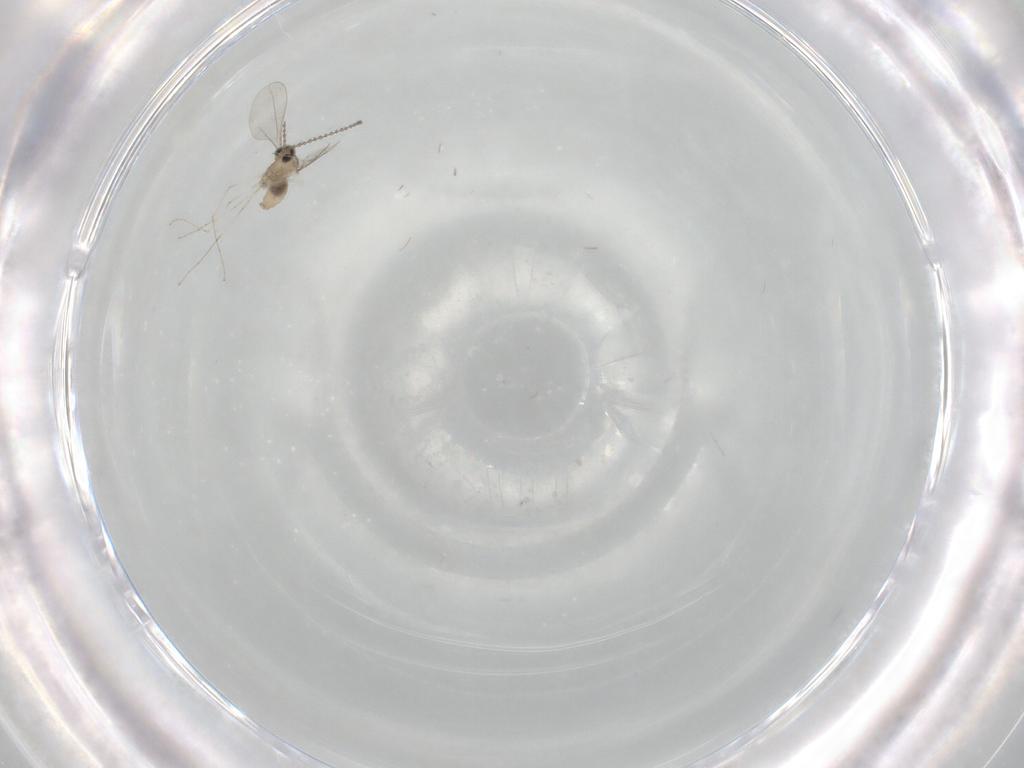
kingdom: Animalia
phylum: Arthropoda
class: Insecta
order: Diptera
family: Cecidomyiidae
